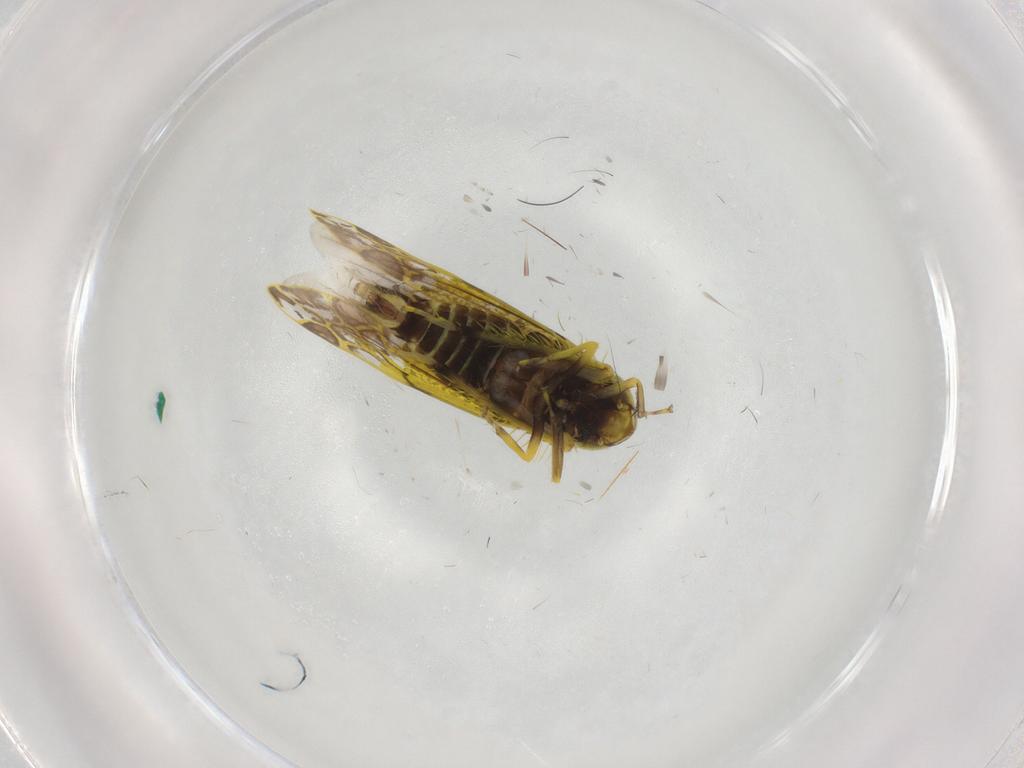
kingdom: Animalia
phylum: Arthropoda
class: Insecta
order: Hemiptera
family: Cicadellidae
